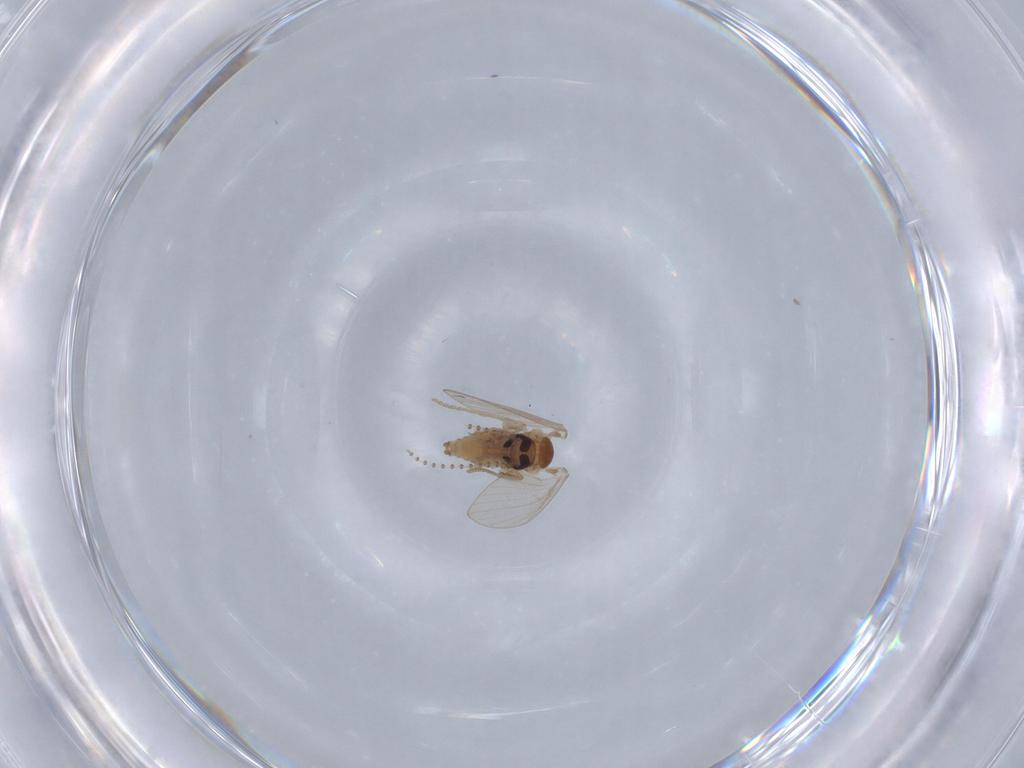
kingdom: Animalia
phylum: Arthropoda
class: Insecta
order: Diptera
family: Psychodidae
